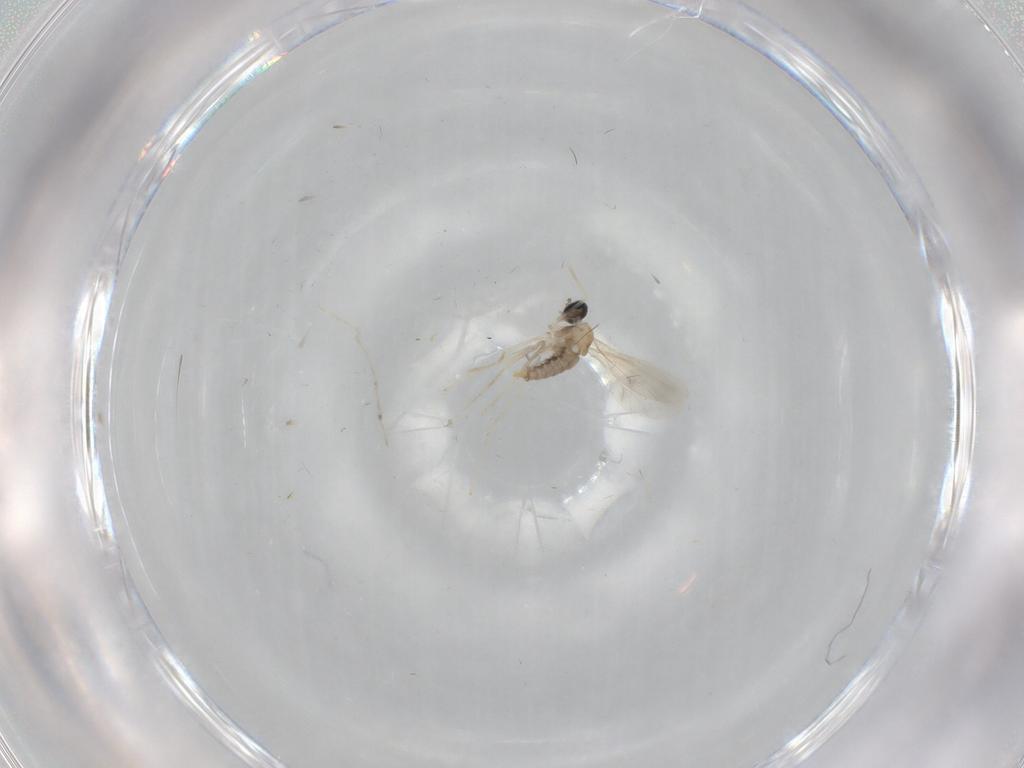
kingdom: Animalia
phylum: Arthropoda
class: Insecta
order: Diptera
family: Cecidomyiidae
